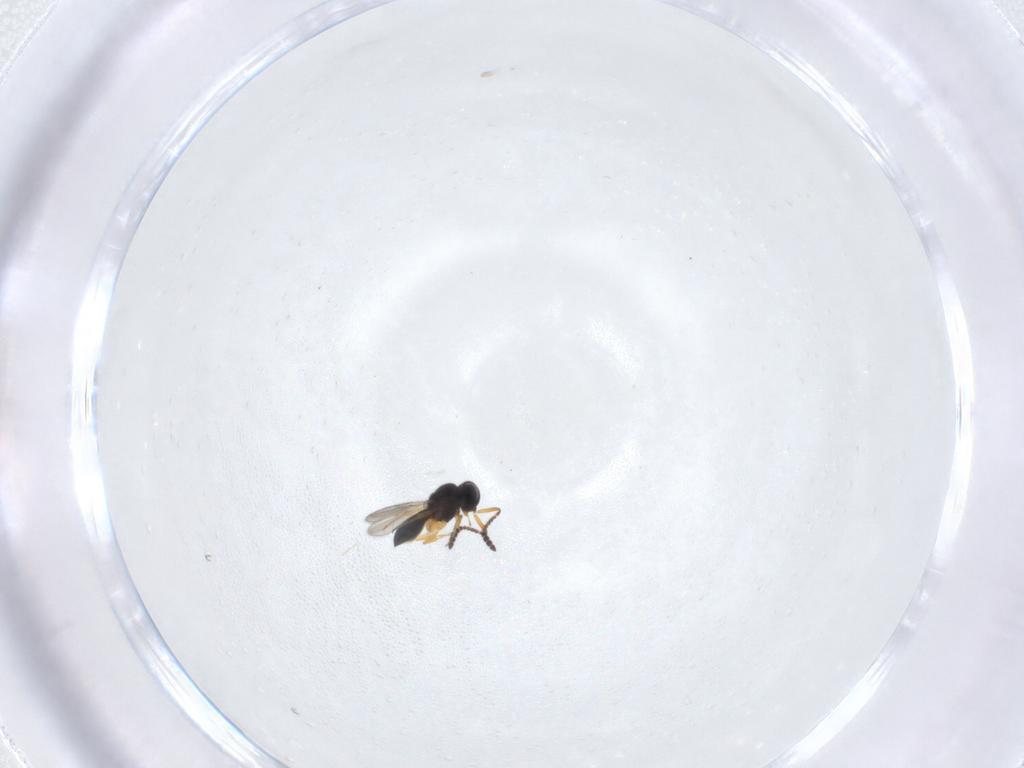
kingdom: Animalia
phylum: Arthropoda
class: Insecta
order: Hymenoptera
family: Scelionidae
